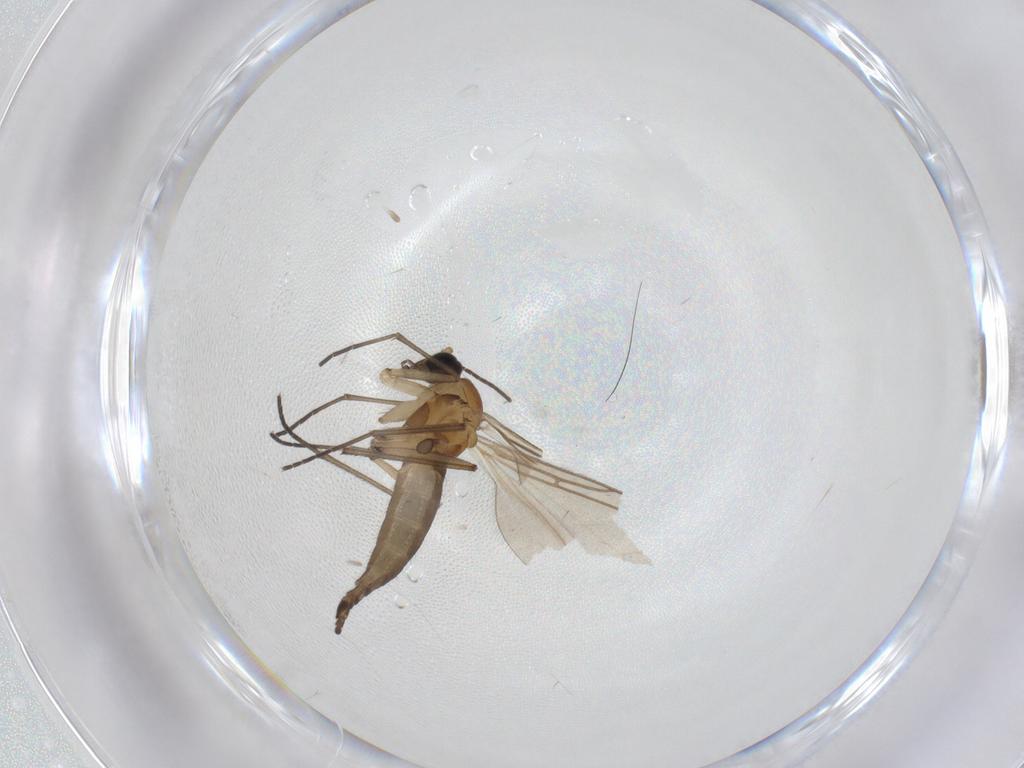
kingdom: Animalia
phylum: Arthropoda
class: Insecta
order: Diptera
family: Sciaridae
